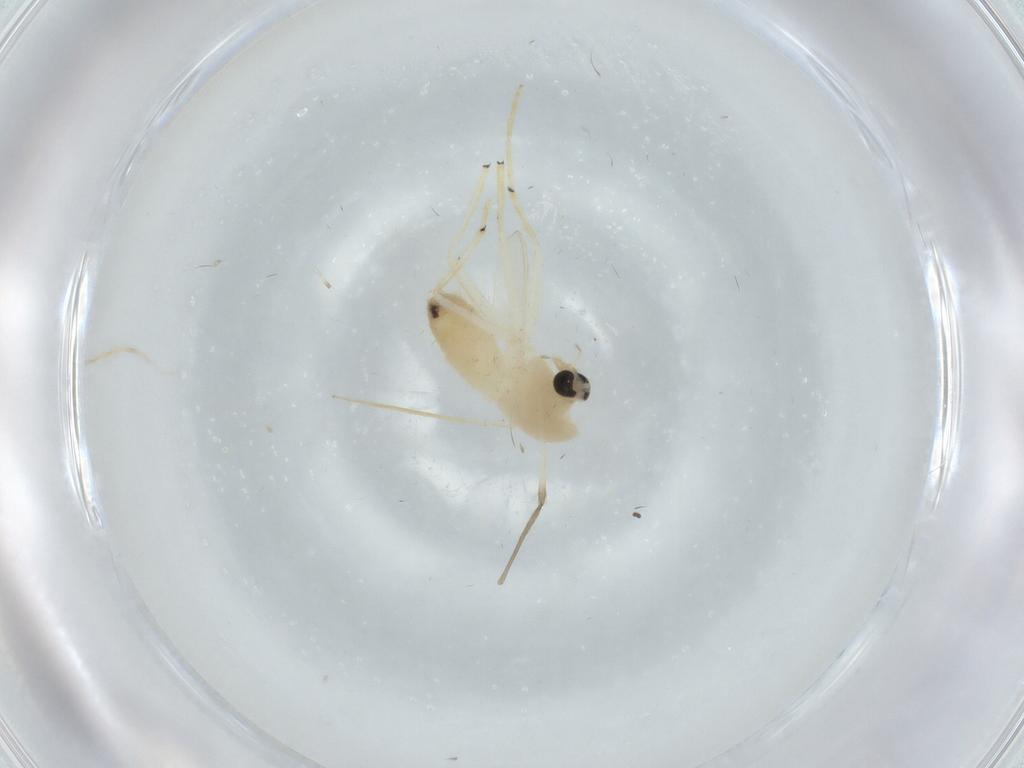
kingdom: Animalia
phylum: Arthropoda
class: Insecta
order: Diptera
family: Chironomidae
